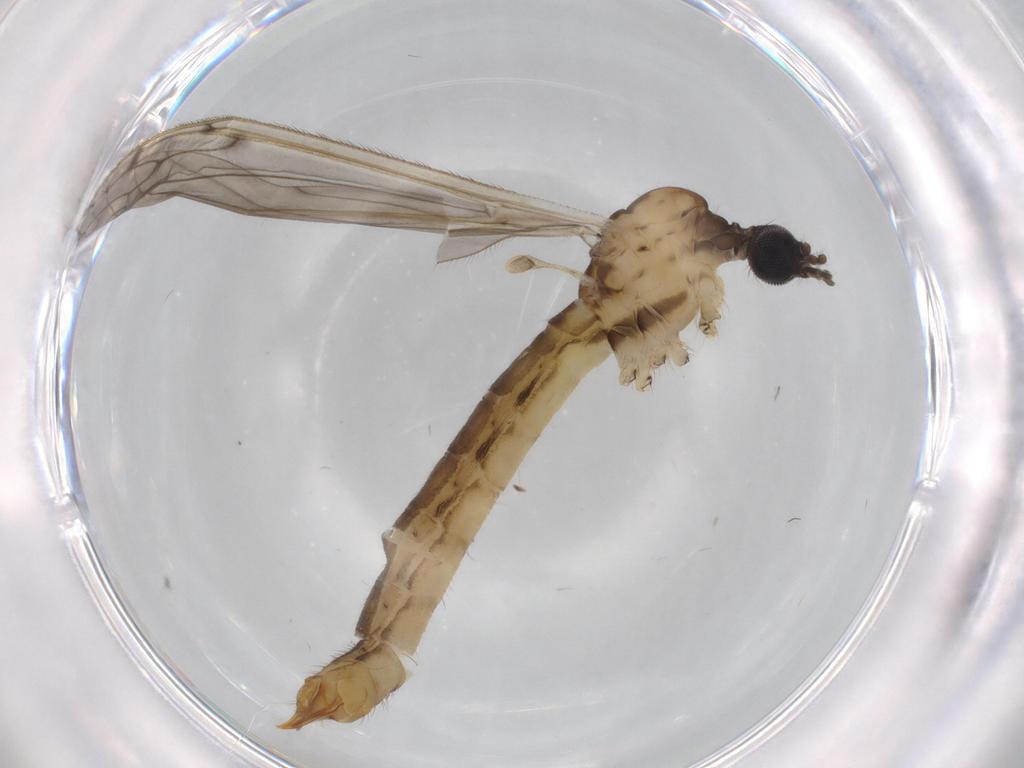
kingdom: Animalia
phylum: Arthropoda
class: Insecta
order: Diptera
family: Limoniidae
